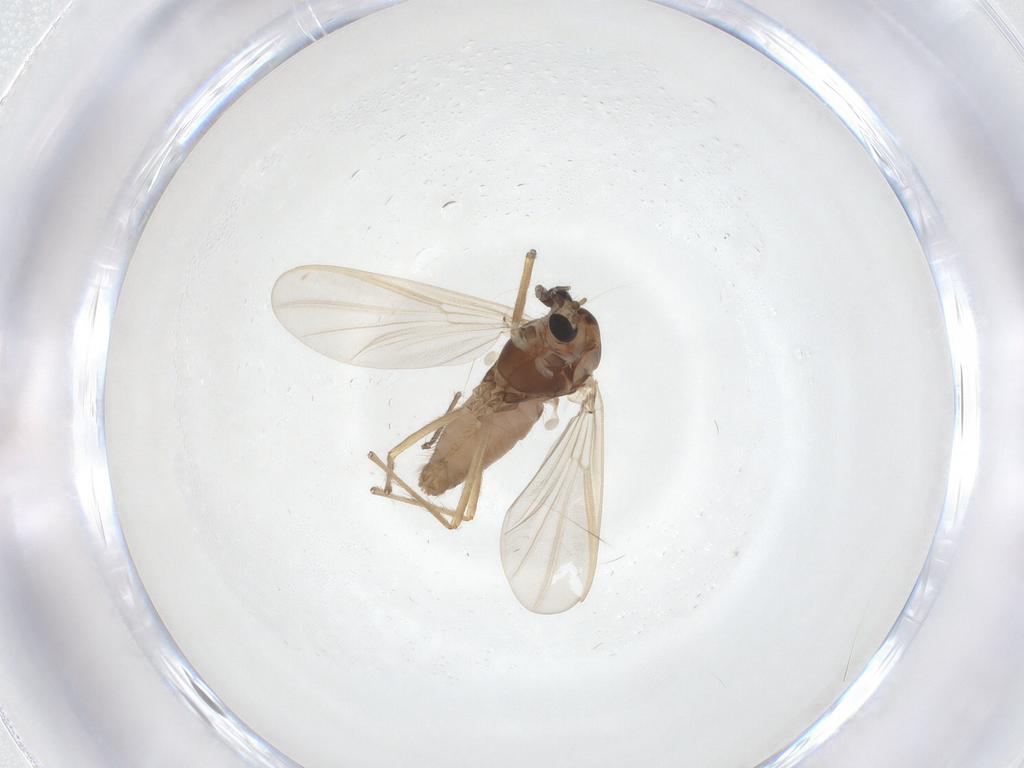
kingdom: Animalia
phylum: Arthropoda
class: Insecta
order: Diptera
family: Chironomidae
